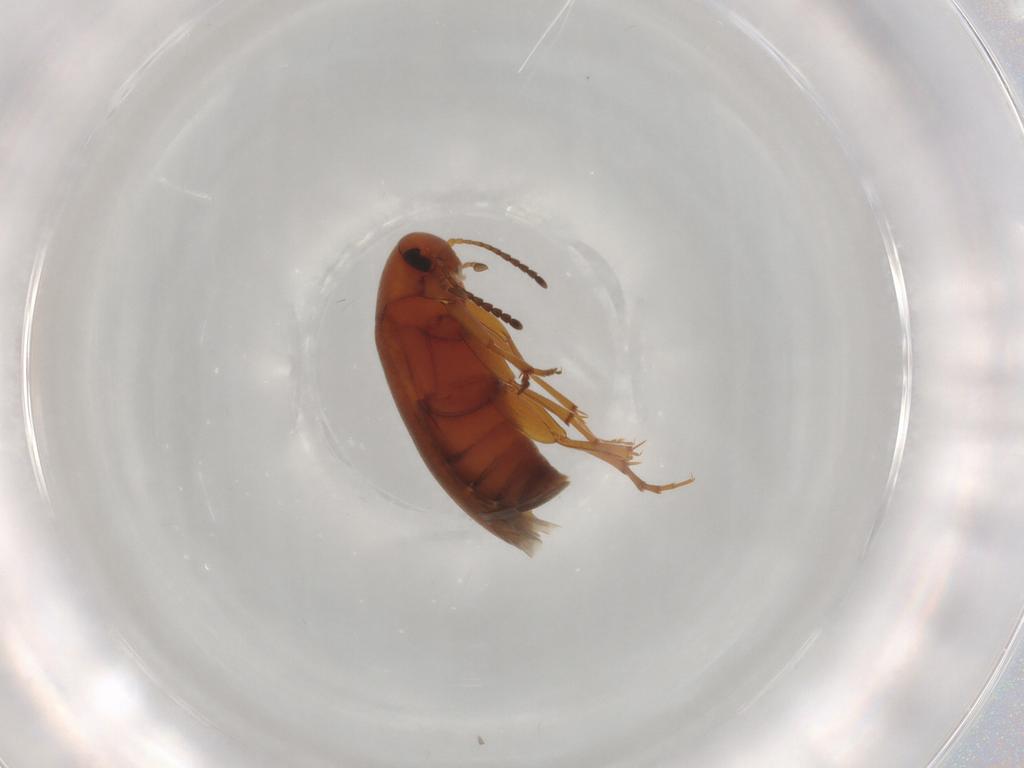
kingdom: Animalia
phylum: Arthropoda
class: Insecta
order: Coleoptera
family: Scraptiidae
